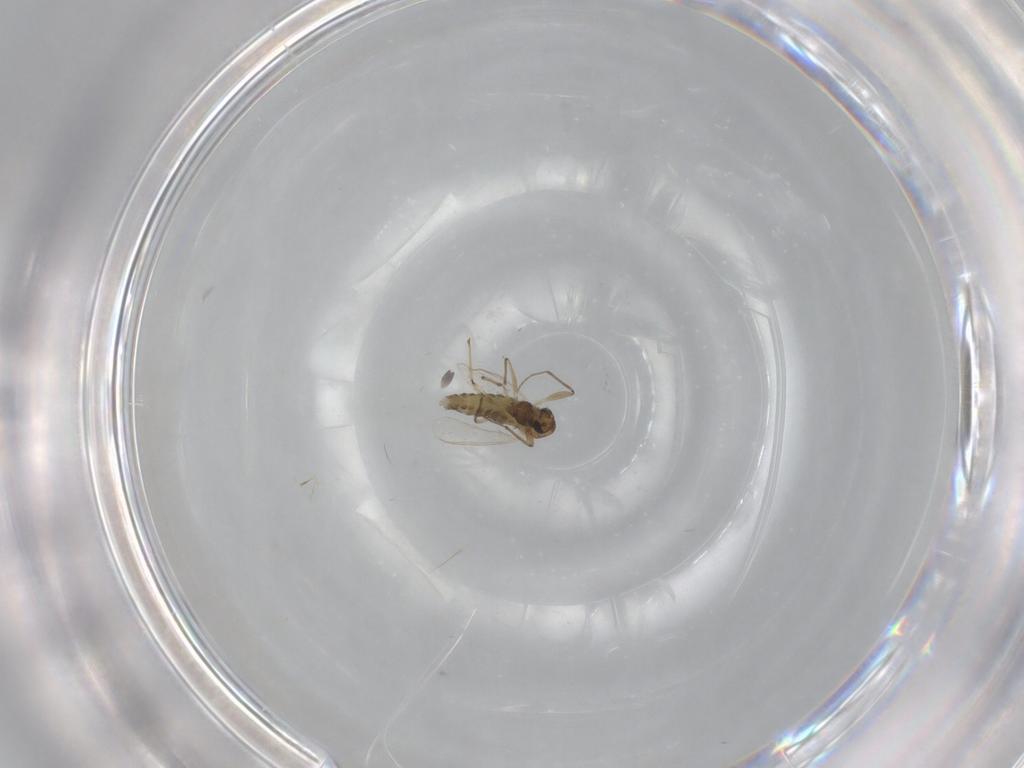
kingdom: Animalia
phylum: Arthropoda
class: Insecta
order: Diptera
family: Chironomidae
